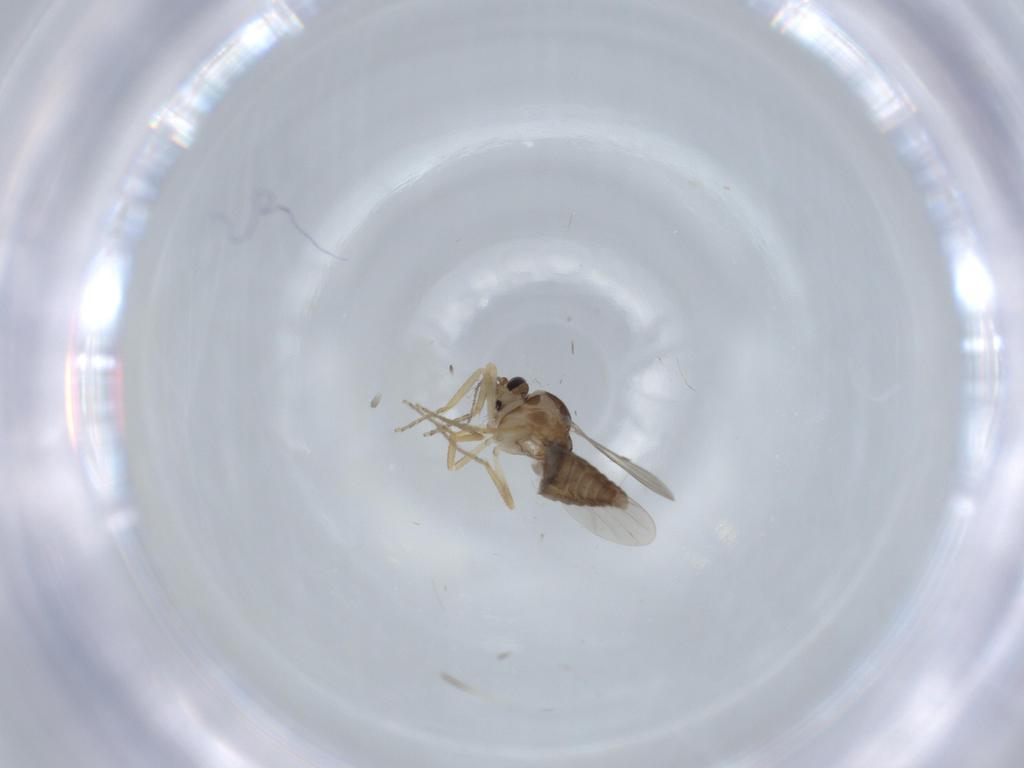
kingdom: Animalia
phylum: Arthropoda
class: Insecta
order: Diptera
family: Ceratopogonidae
